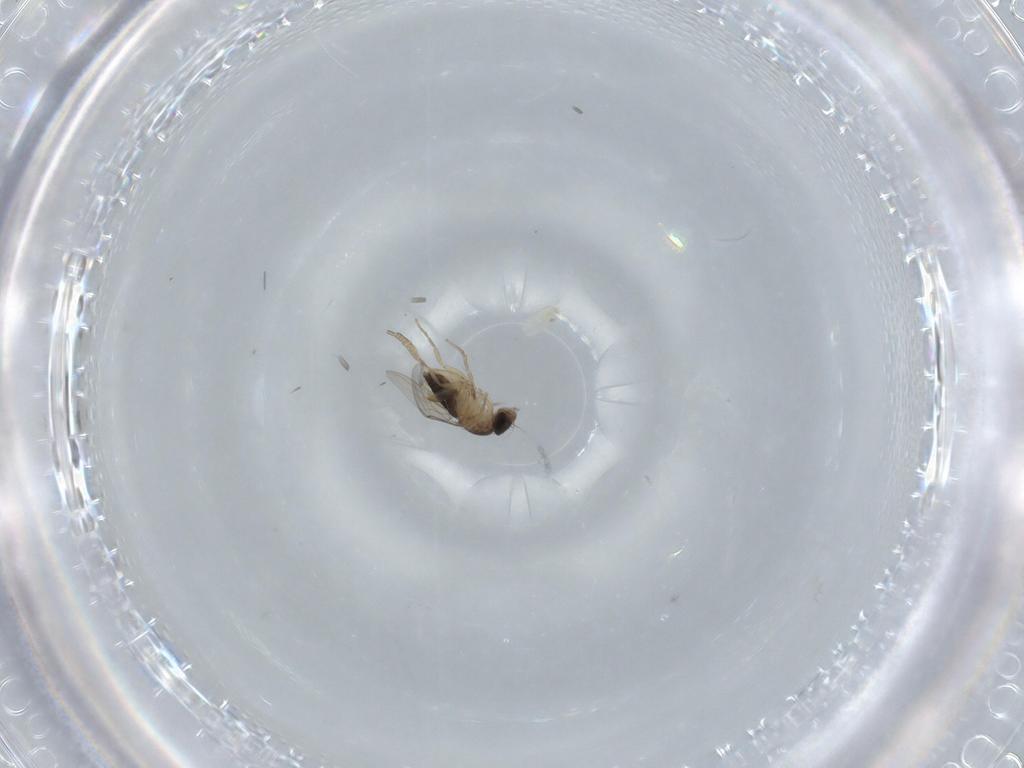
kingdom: Animalia
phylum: Arthropoda
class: Insecta
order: Diptera
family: Phoridae
